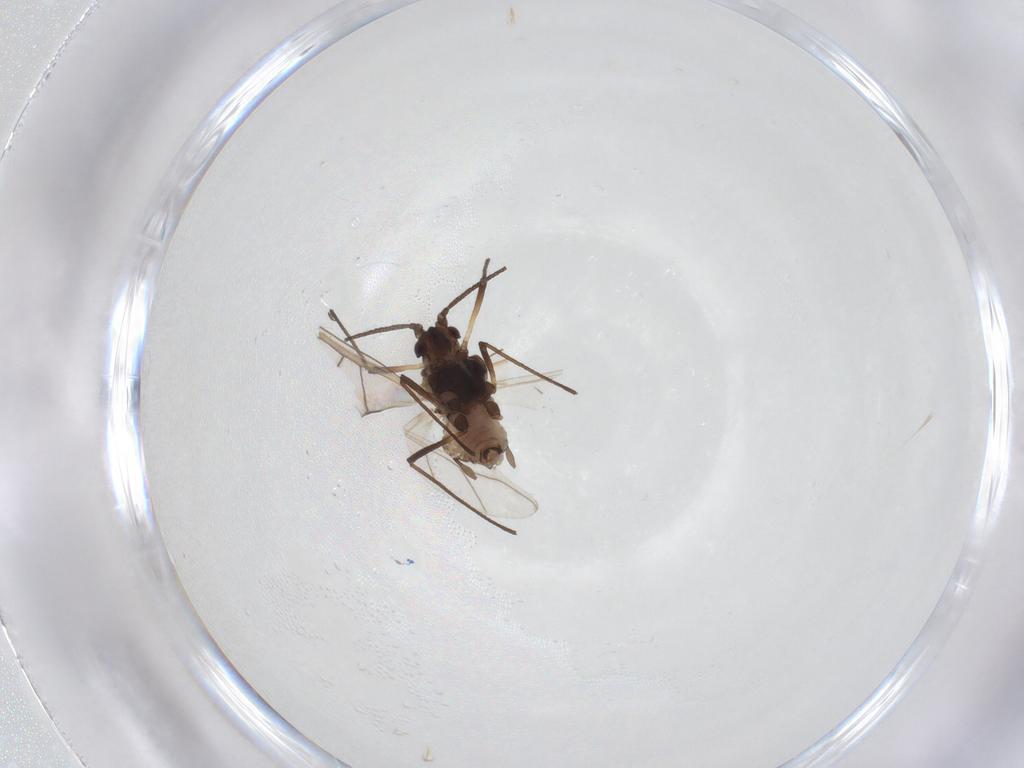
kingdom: Animalia
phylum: Arthropoda
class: Insecta
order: Hemiptera
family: Aphididae
